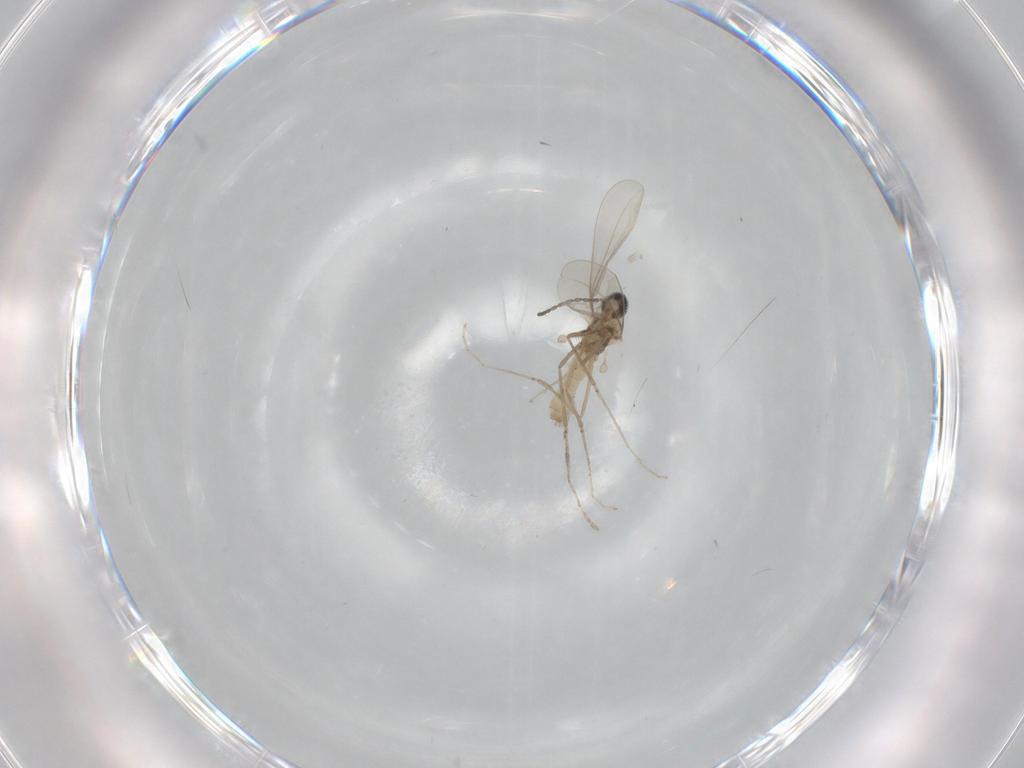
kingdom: Animalia
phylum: Arthropoda
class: Insecta
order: Diptera
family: Cecidomyiidae
